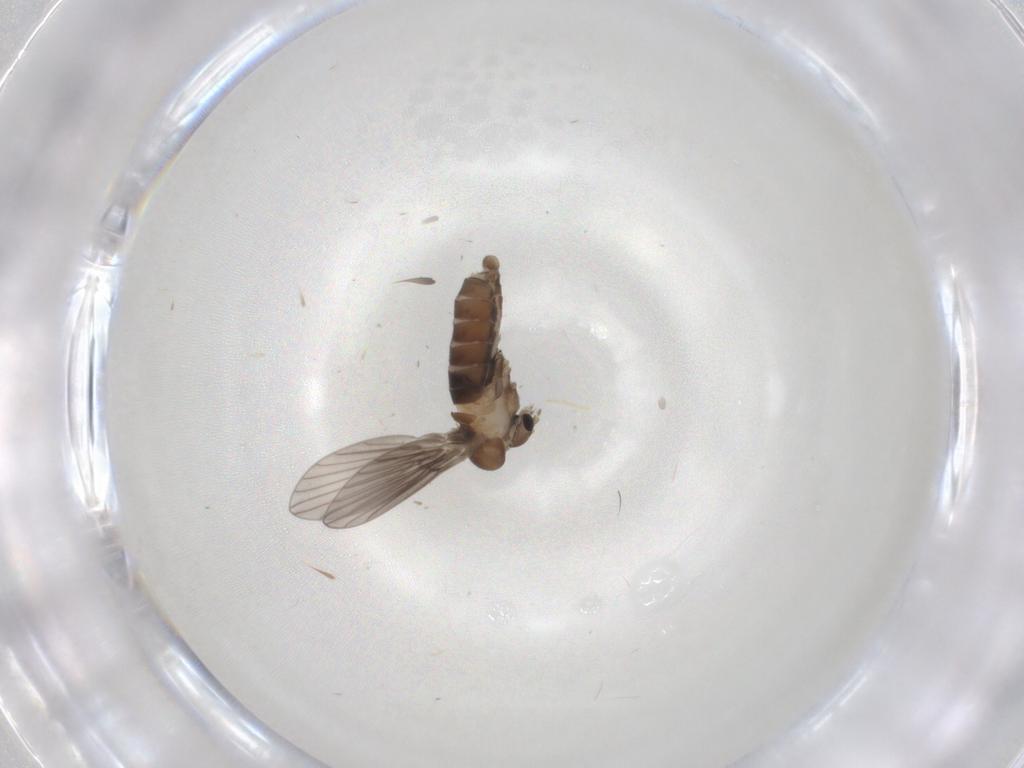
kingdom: Animalia
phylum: Arthropoda
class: Insecta
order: Diptera
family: Psychodidae
